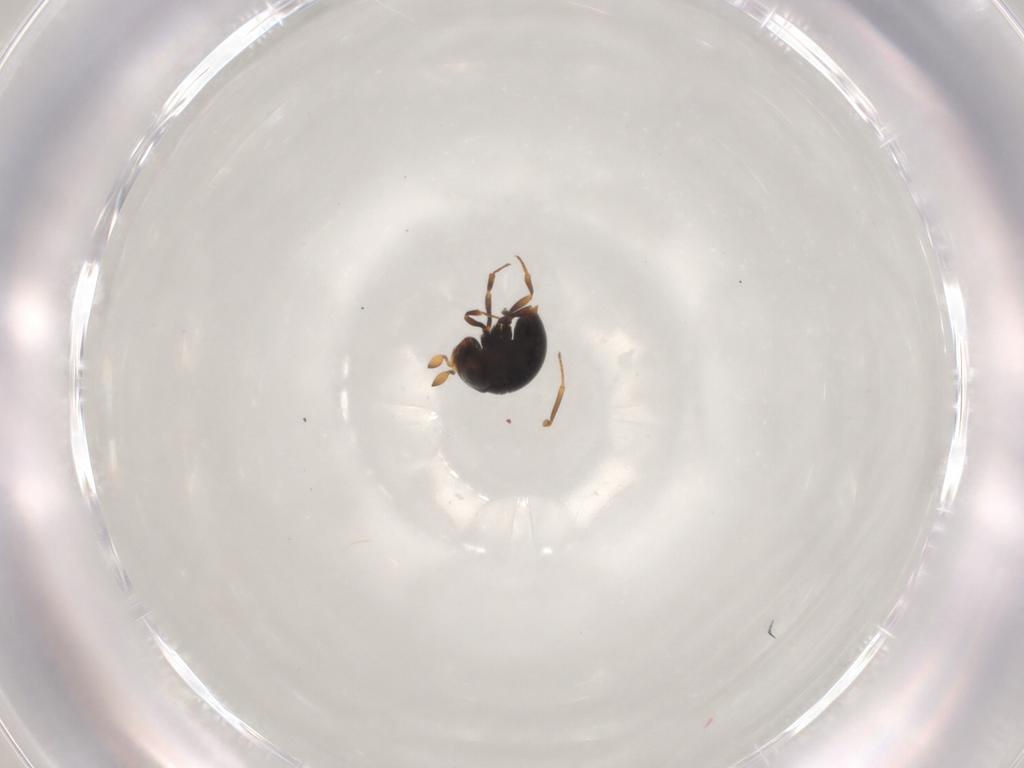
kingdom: Animalia
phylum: Arthropoda
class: Insecta
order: Hymenoptera
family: Scelionidae
